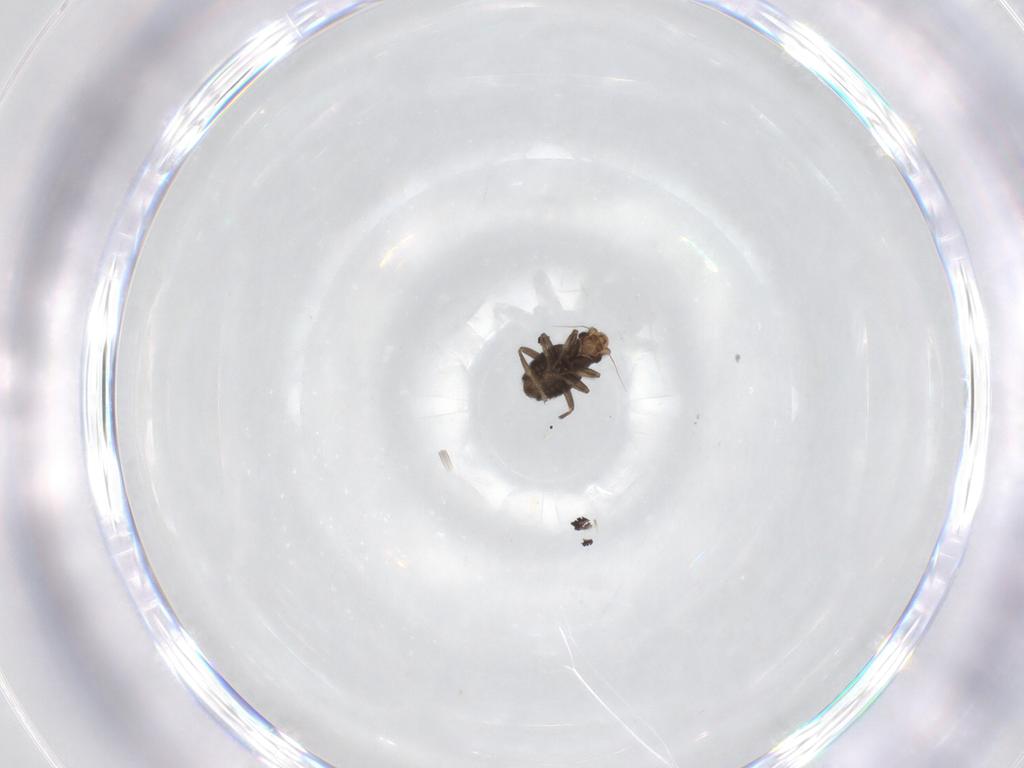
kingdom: Animalia
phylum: Arthropoda
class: Insecta
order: Diptera
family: Phoridae
